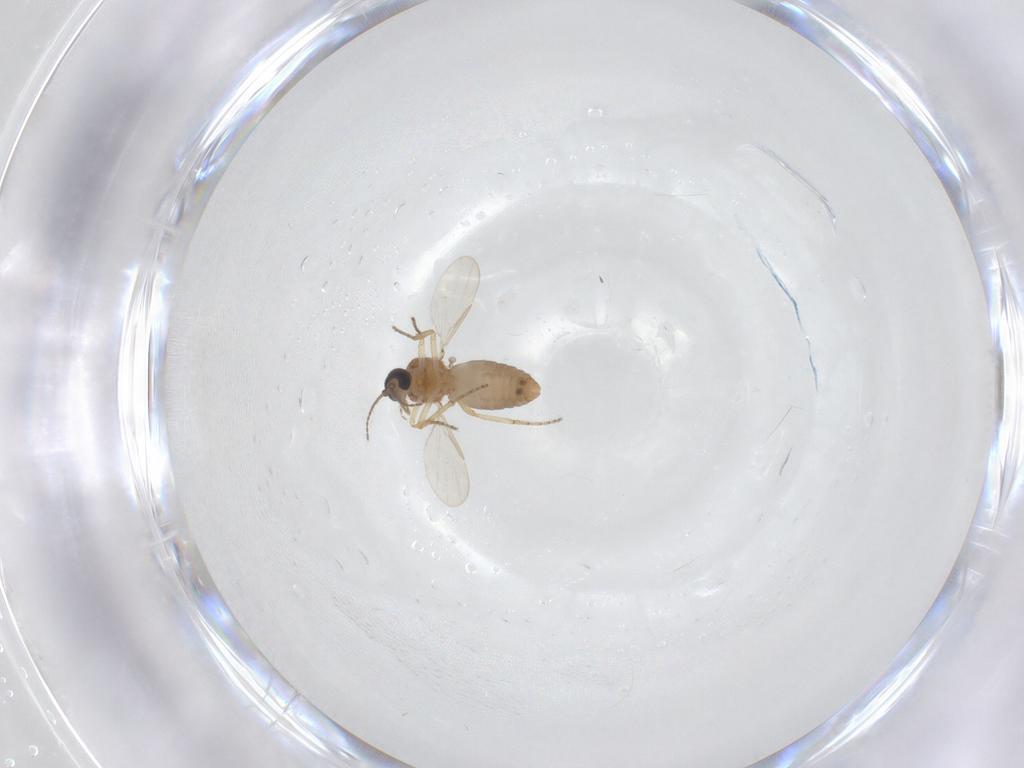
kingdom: Animalia
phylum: Arthropoda
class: Insecta
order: Diptera
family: Ceratopogonidae
